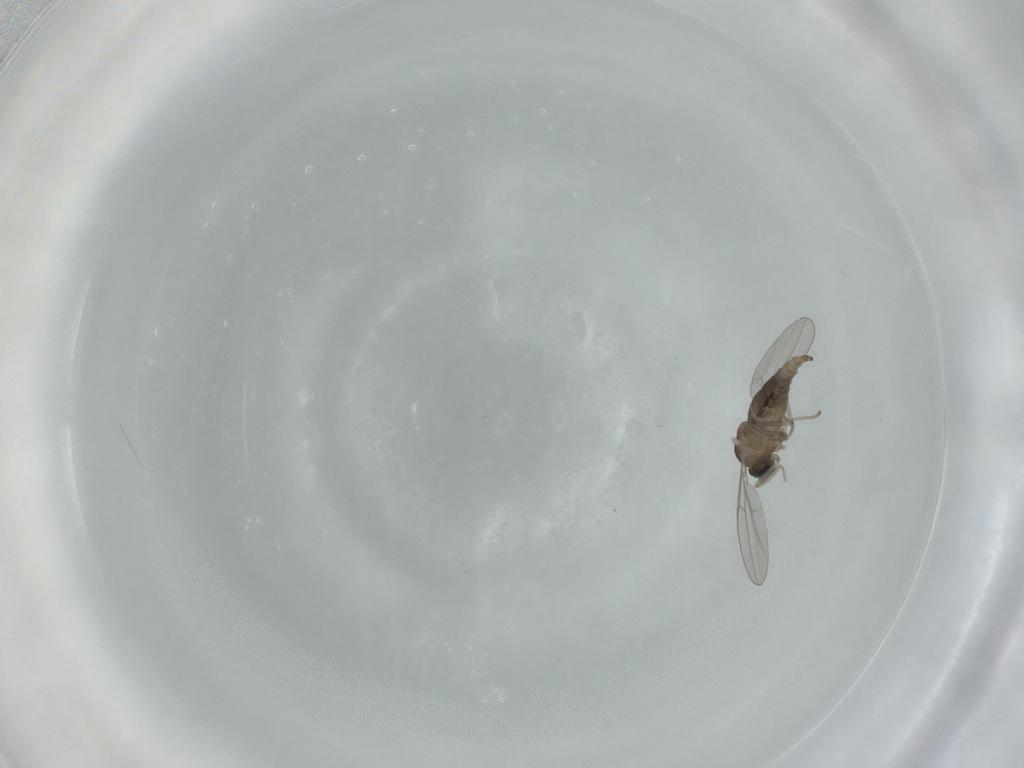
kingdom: Animalia
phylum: Arthropoda
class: Insecta
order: Diptera
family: Cecidomyiidae
